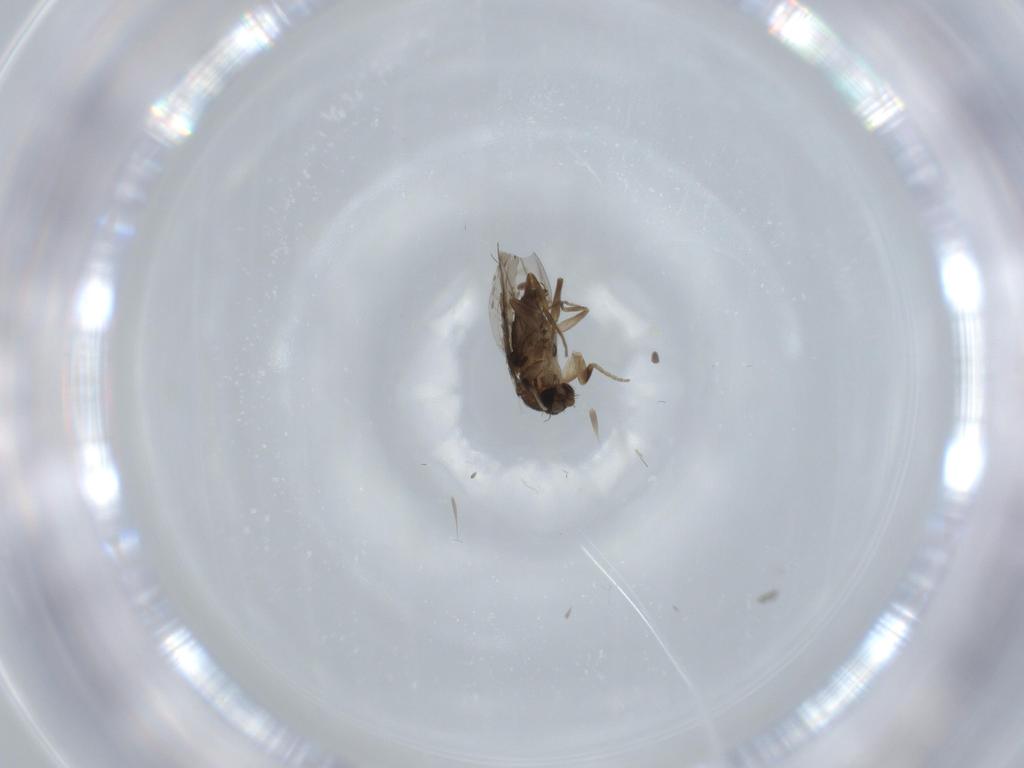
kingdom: Animalia
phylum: Arthropoda
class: Insecta
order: Diptera
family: Phoridae
